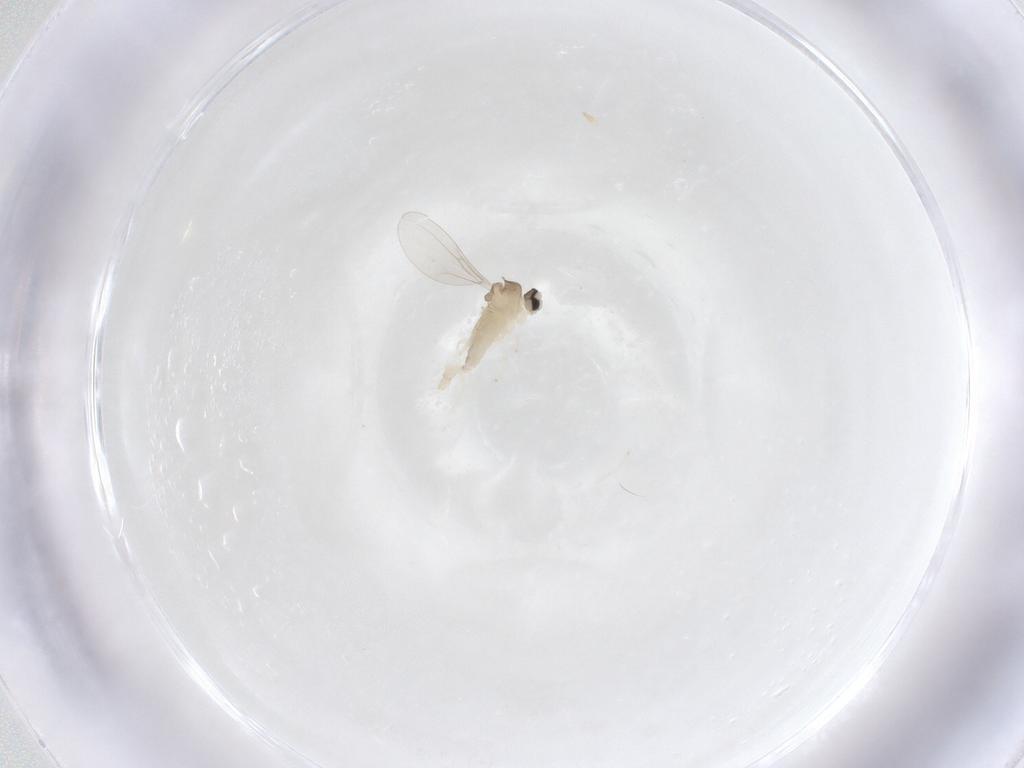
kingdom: Animalia
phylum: Arthropoda
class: Insecta
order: Diptera
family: Cecidomyiidae
